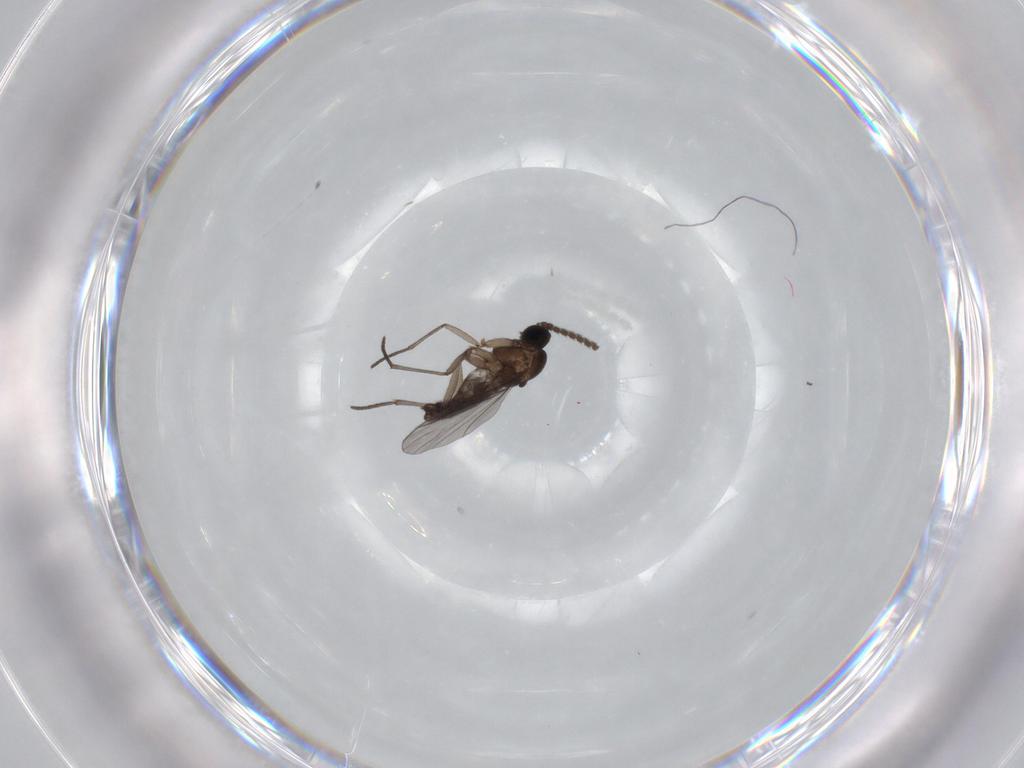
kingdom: Animalia
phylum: Arthropoda
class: Insecta
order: Diptera
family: Sciaridae
